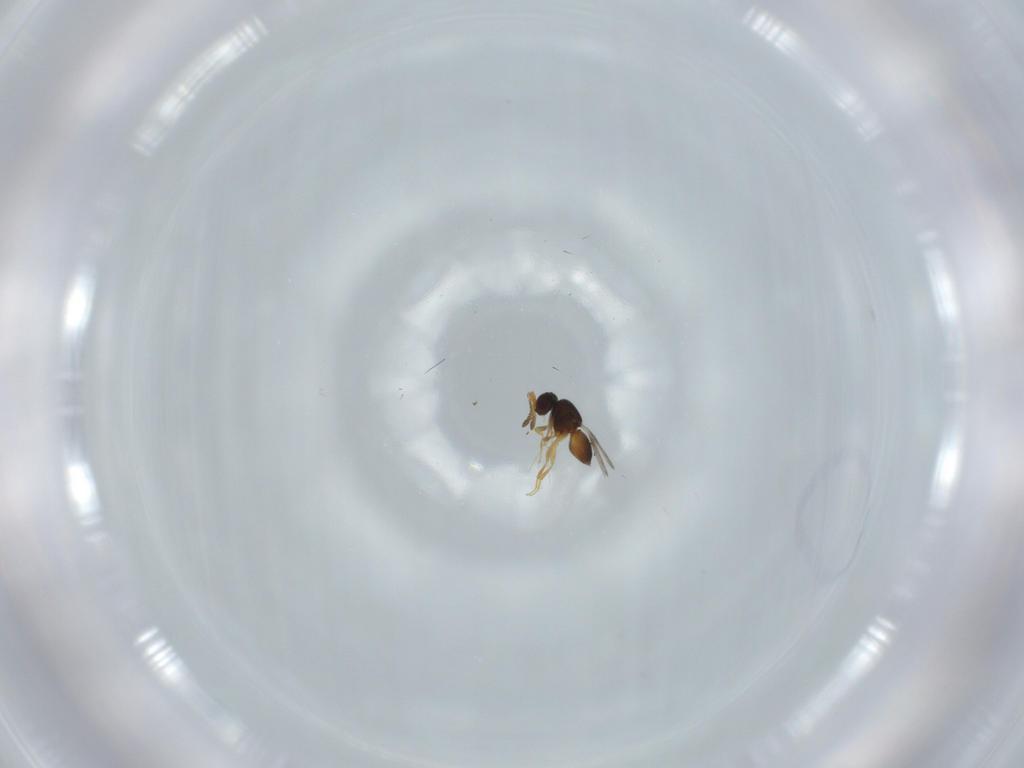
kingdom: Animalia
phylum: Arthropoda
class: Insecta
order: Hymenoptera
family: Ceraphronidae
